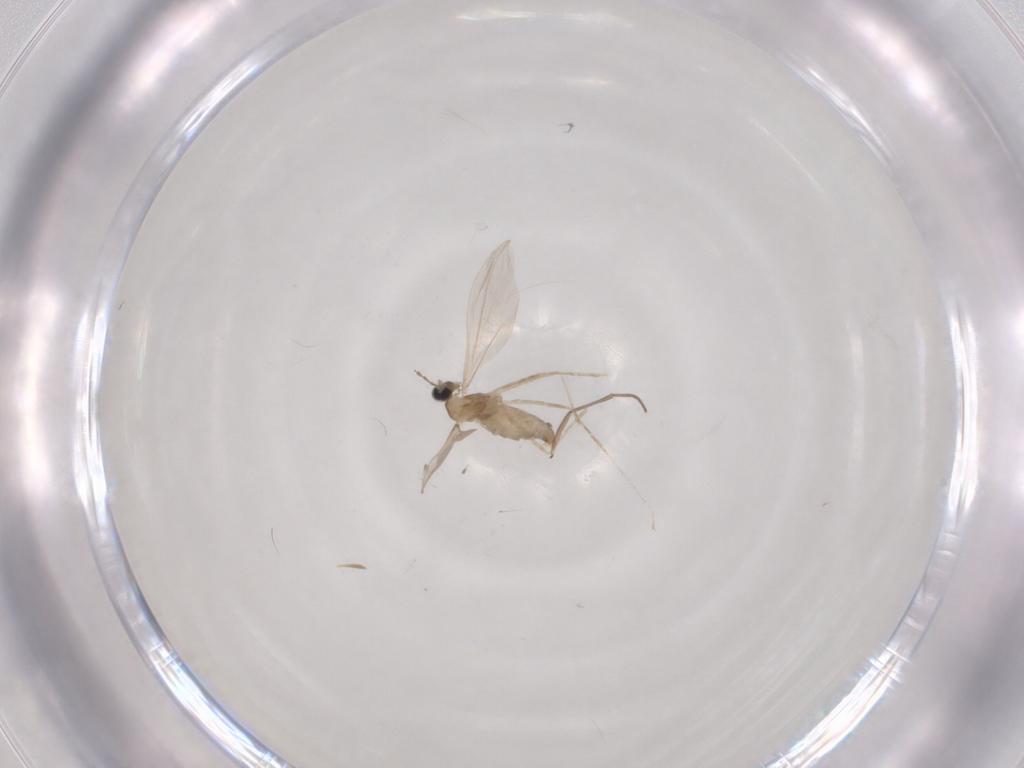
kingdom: Animalia
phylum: Arthropoda
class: Insecta
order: Diptera
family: Cecidomyiidae
